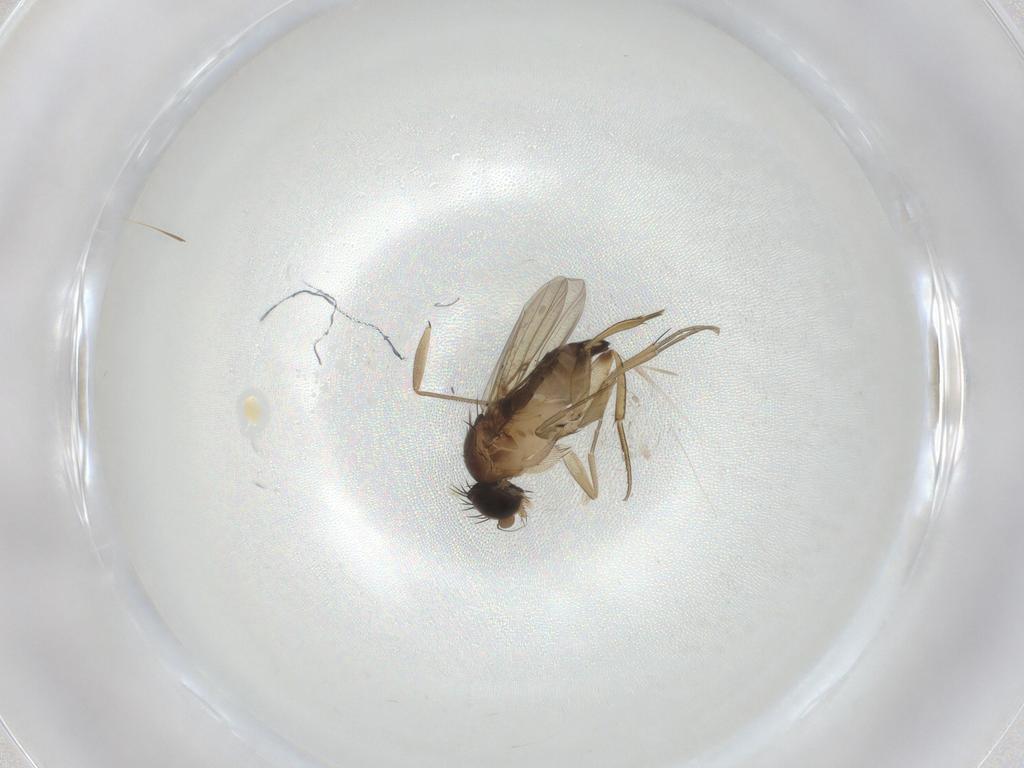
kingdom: Animalia
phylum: Arthropoda
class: Insecta
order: Diptera
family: Phoridae
